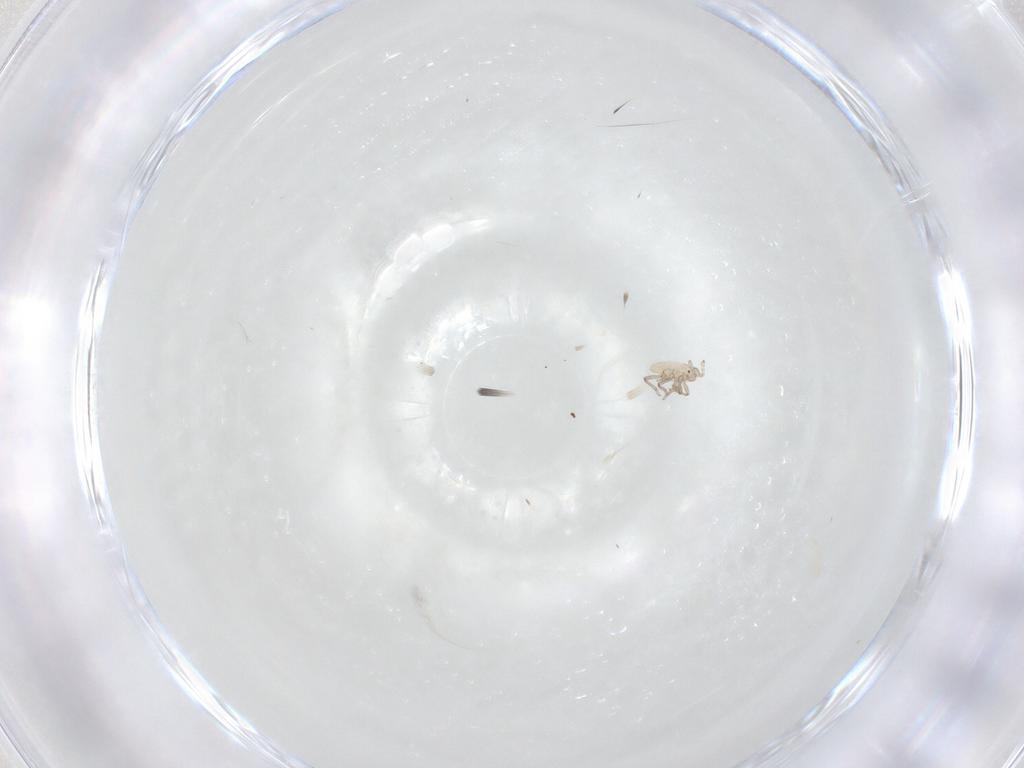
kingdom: Animalia
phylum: Arthropoda
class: Insecta
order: Hemiptera
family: Aphididae
